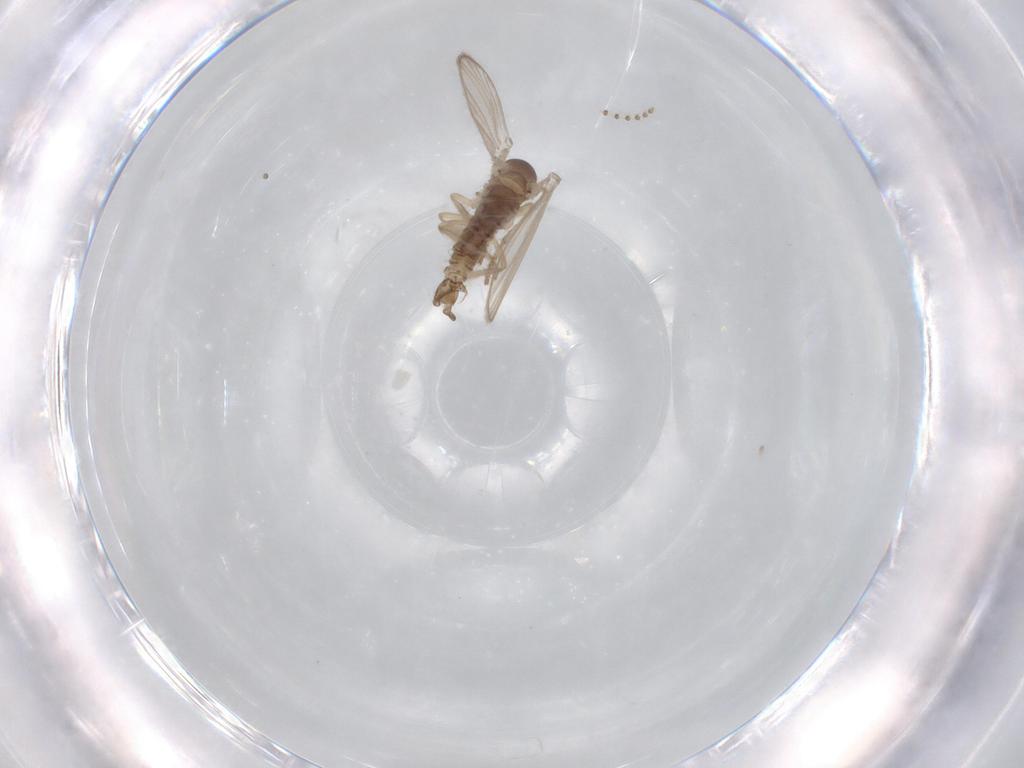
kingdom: Animalia
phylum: Arthropoda
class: Insecta
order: Diptera
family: Psychodidae
